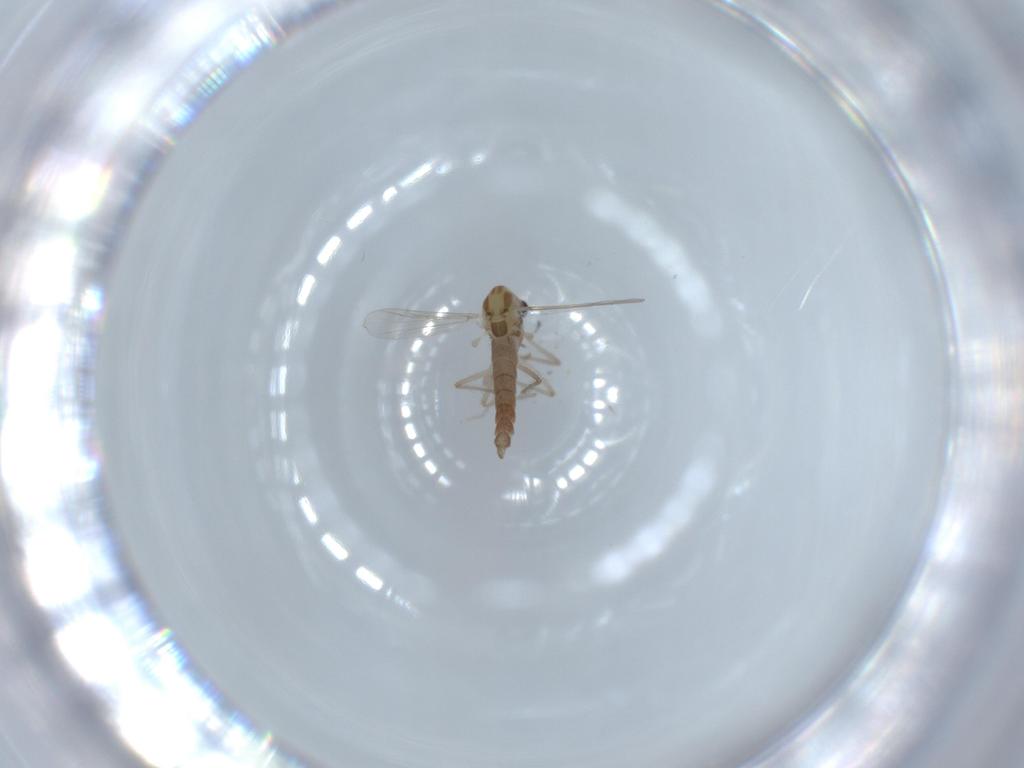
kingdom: Animalia
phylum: Arthropoda
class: Insecta
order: Diptera
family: Chironomidae
